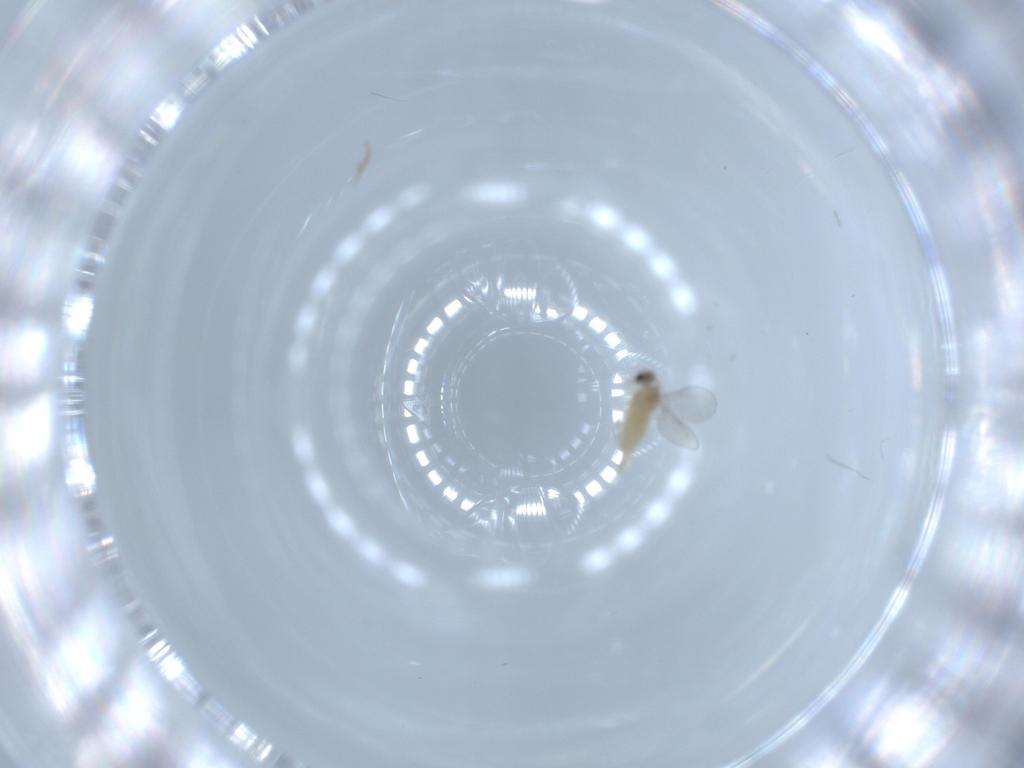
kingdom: Animalia
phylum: Arthropoda
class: Insecta
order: Diptera
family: Cecidomyiidae
